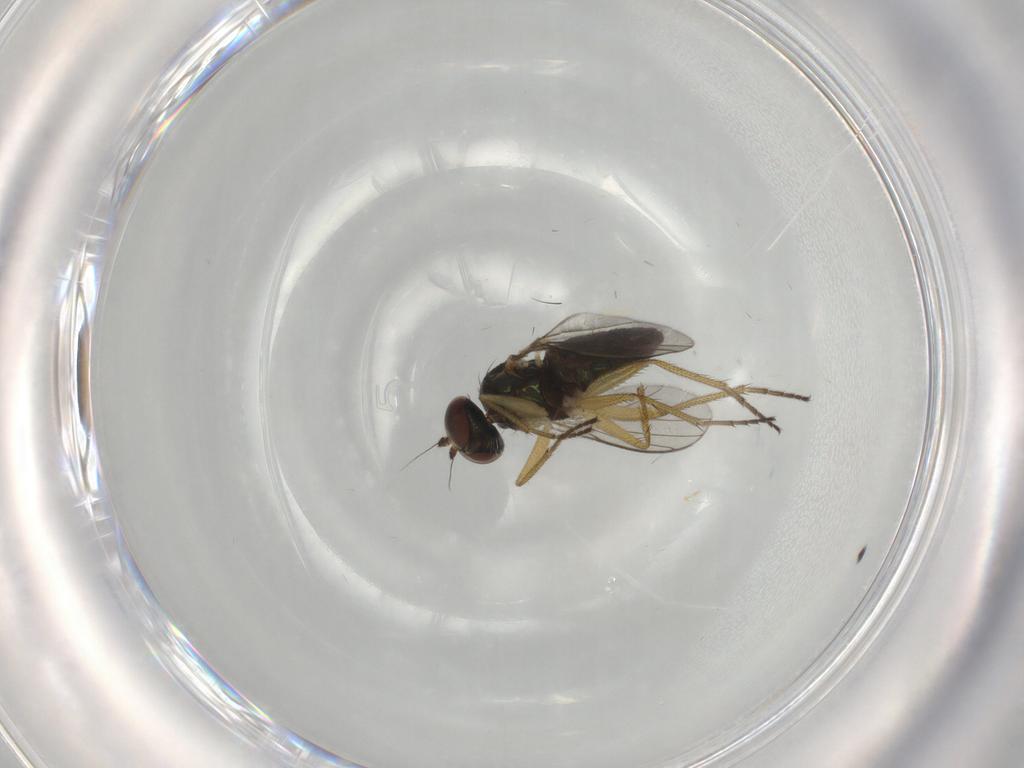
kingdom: Animalia
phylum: Arthropoda
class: Insecta
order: Diptera
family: Dolichopodidae
